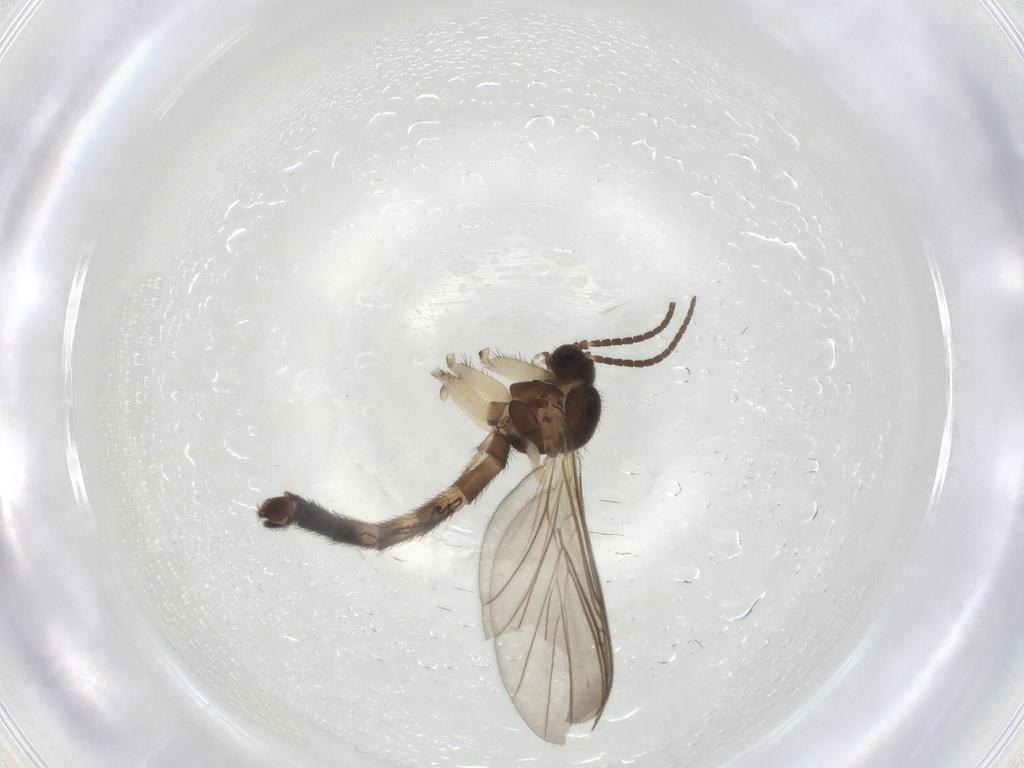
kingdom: Animalia
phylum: Arthropoda
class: Insecta
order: Diptera
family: Keroplatidae
